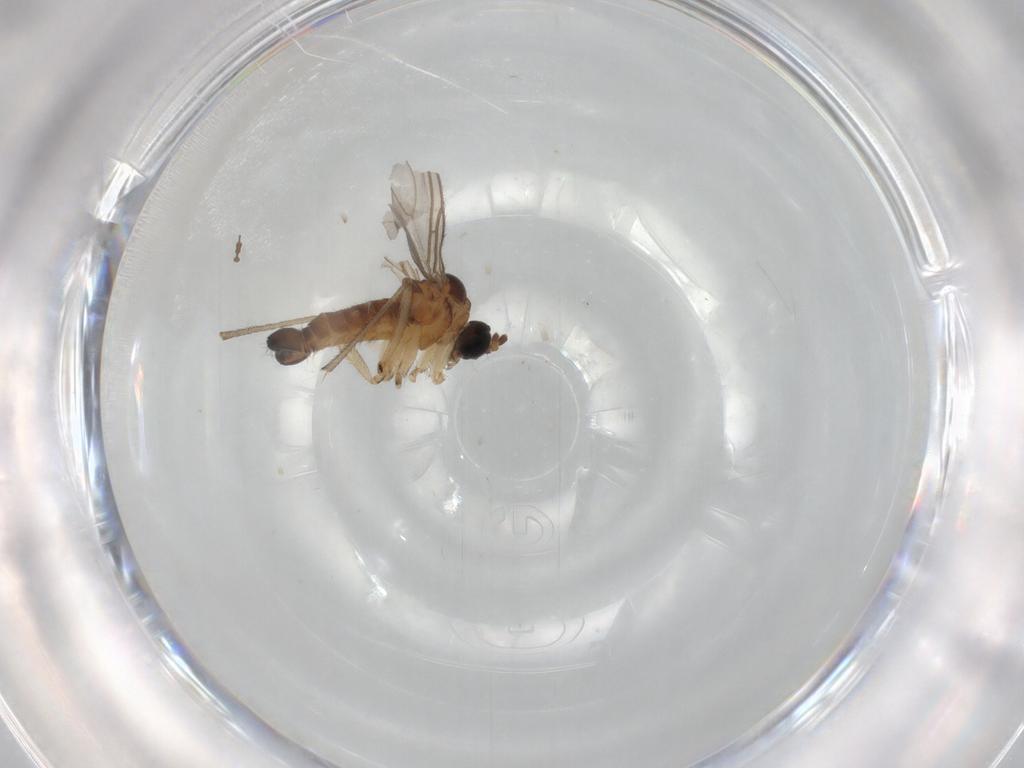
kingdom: Animalia
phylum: Arthropoda
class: Insecta
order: Diptera
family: Sciaridae
